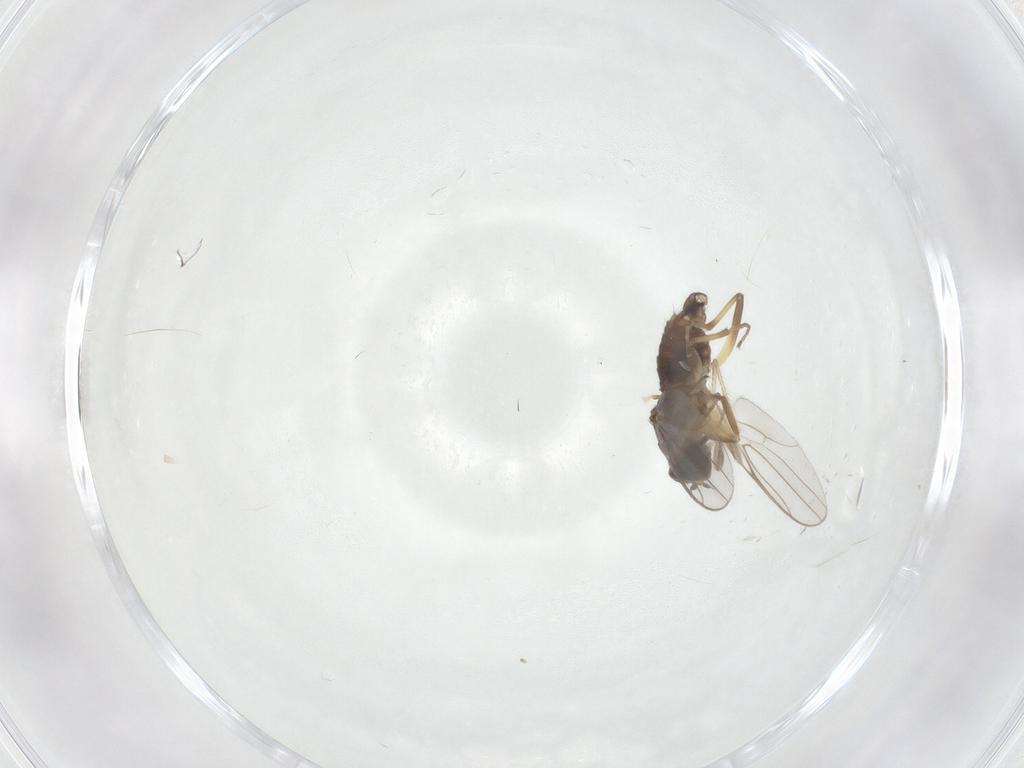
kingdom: Animalia
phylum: Arthropoda
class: Insecta
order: Diptera
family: Hybotidae
